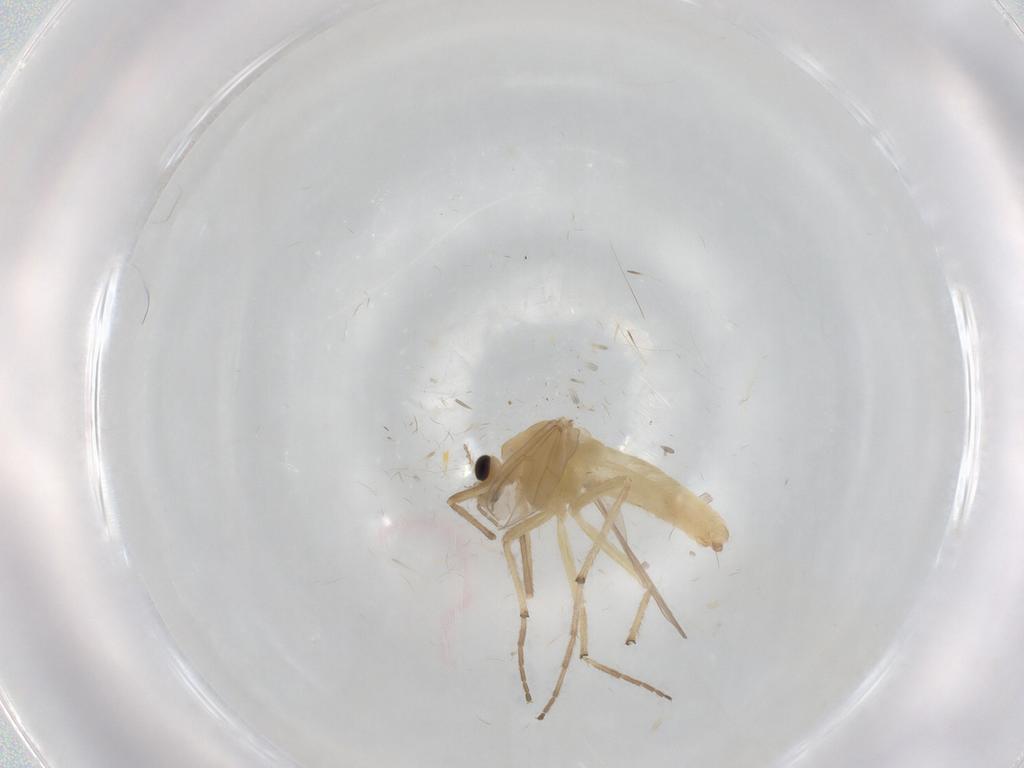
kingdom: Animalia
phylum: Arthropoda
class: Insecta
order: Diptera
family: Chironomidae
